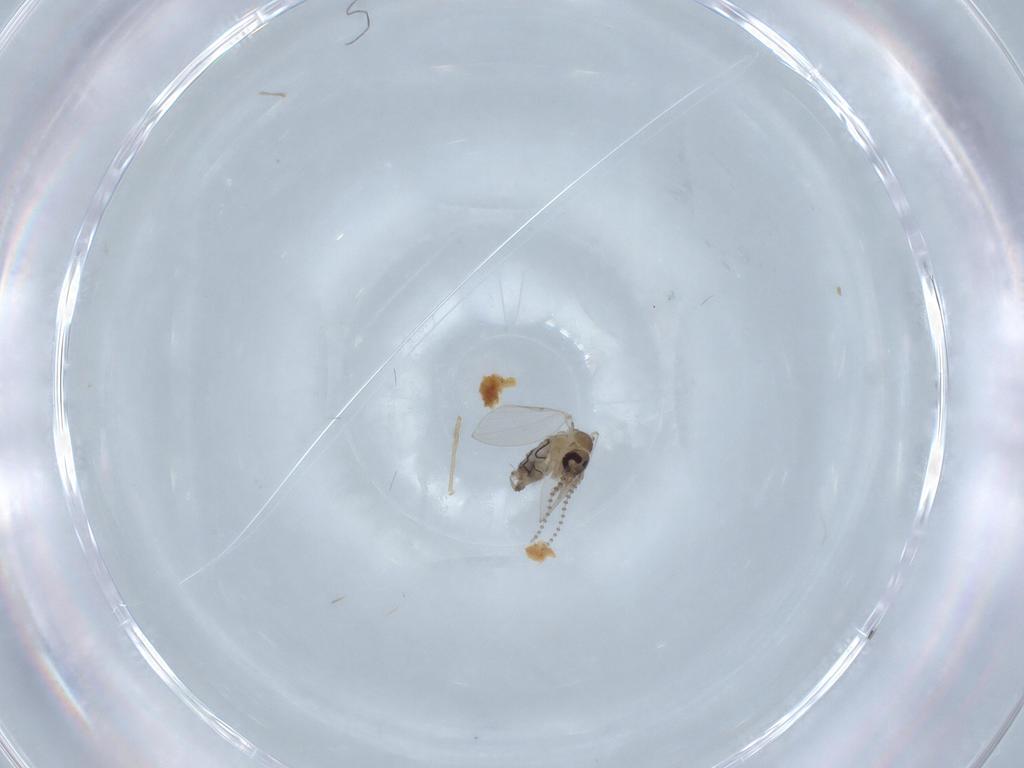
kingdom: Animalia
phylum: Arthropoda
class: Insecta
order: Diptera
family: Psychodidae
